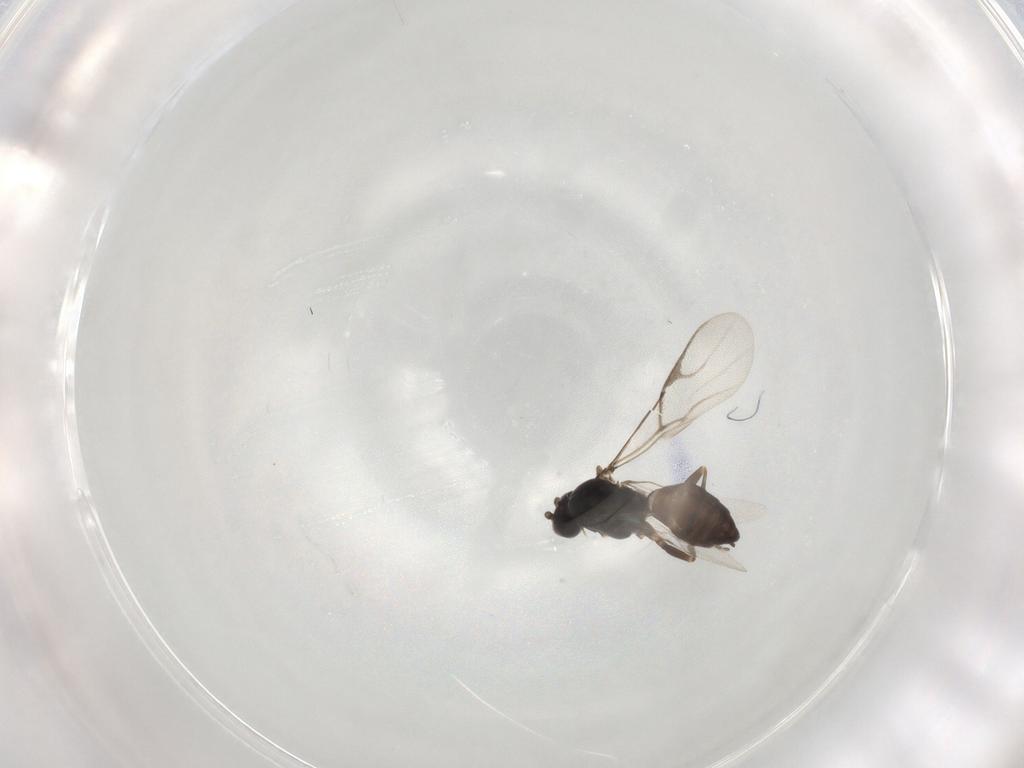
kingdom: Animalia
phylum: Arthropoda
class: Insecta
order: Hymenoptera
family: Braconidae
